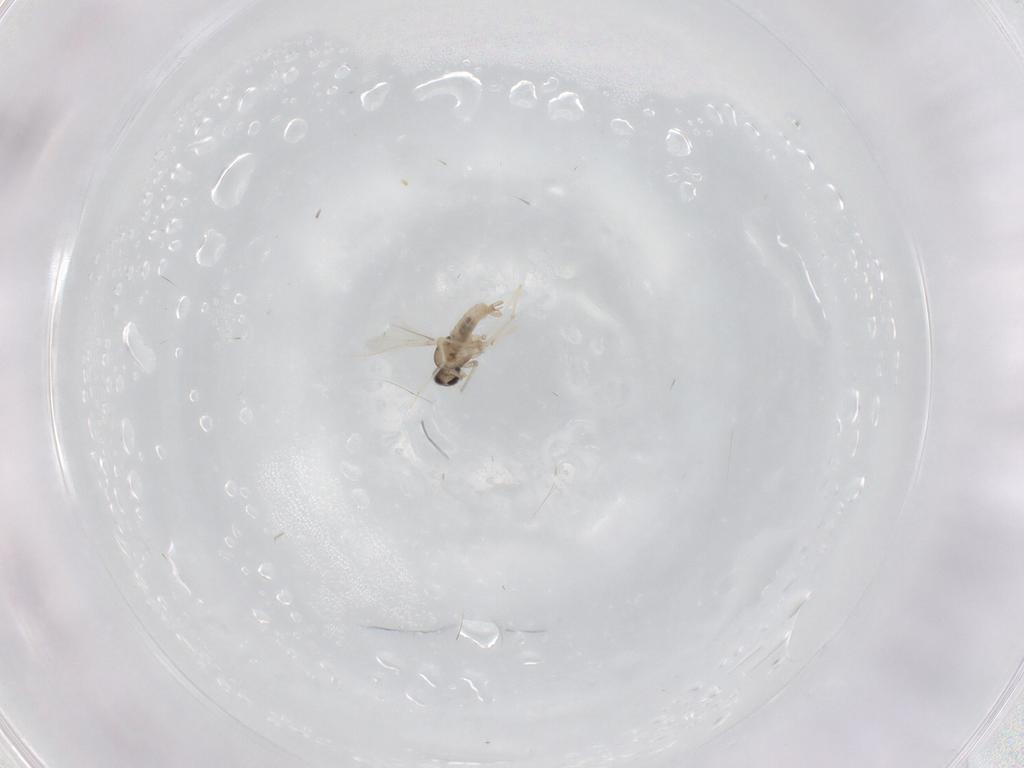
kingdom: Animalia
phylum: Arthropoda
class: Insecta
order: Diptera
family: Cecidomyiidae
